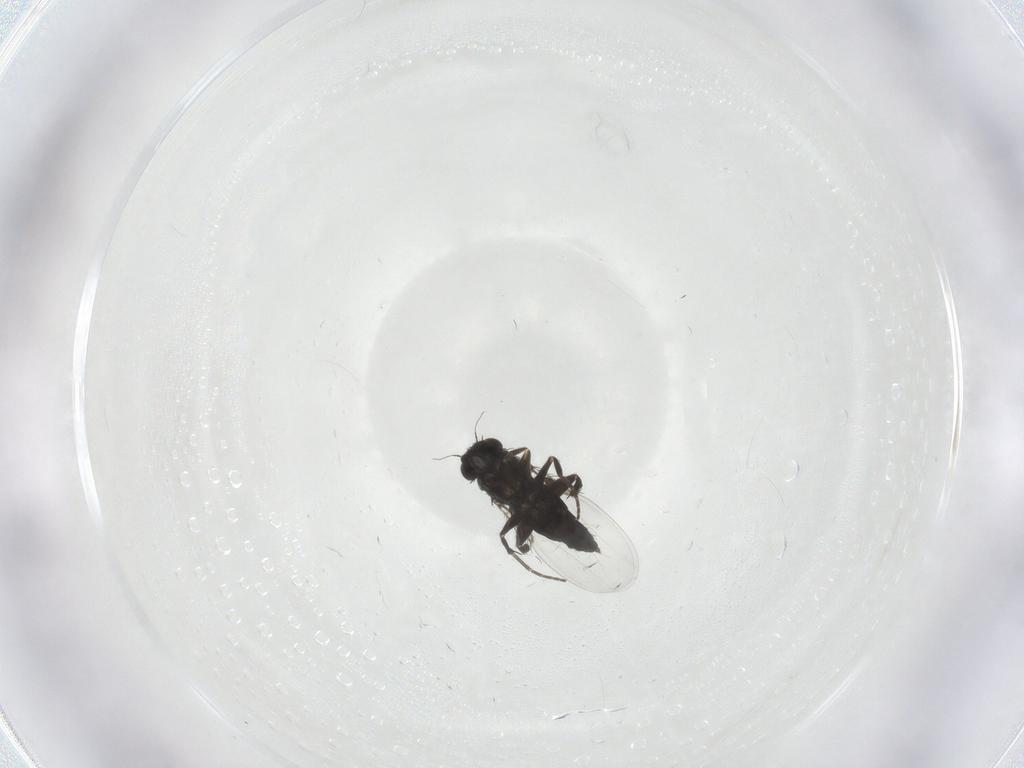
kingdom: Animalia
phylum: Arthropoda
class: Insecta
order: Diptera
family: Phoridae
